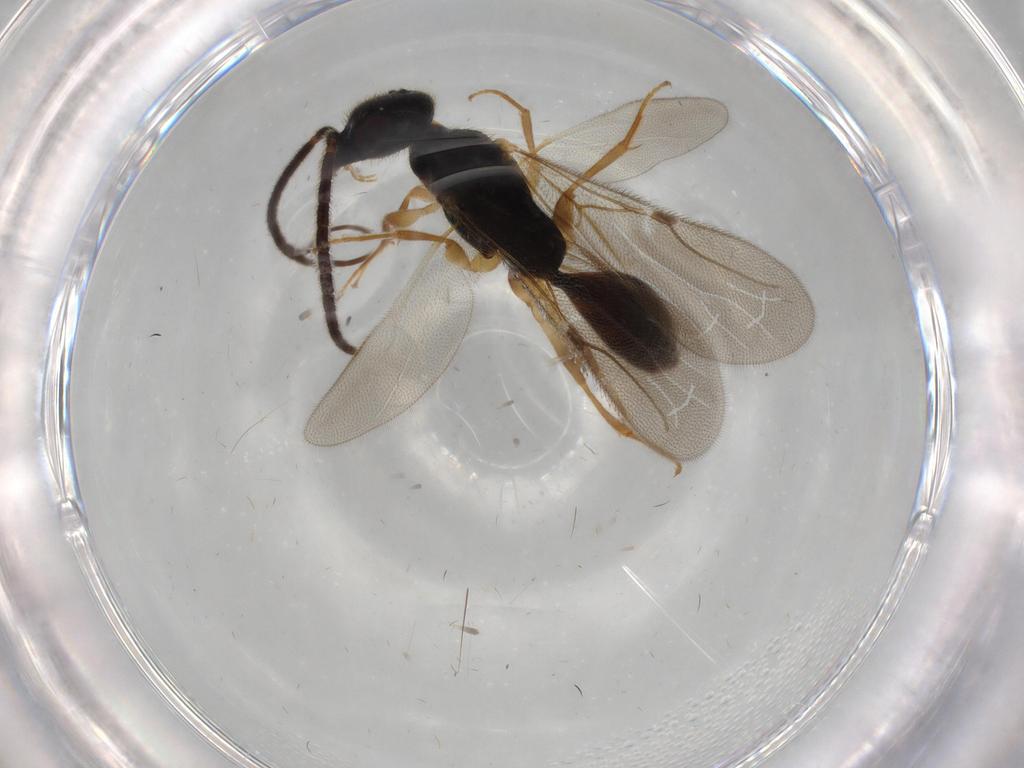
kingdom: Animalia
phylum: Arthropoda
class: Insecta
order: Hymenoptera
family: Bethylidae
